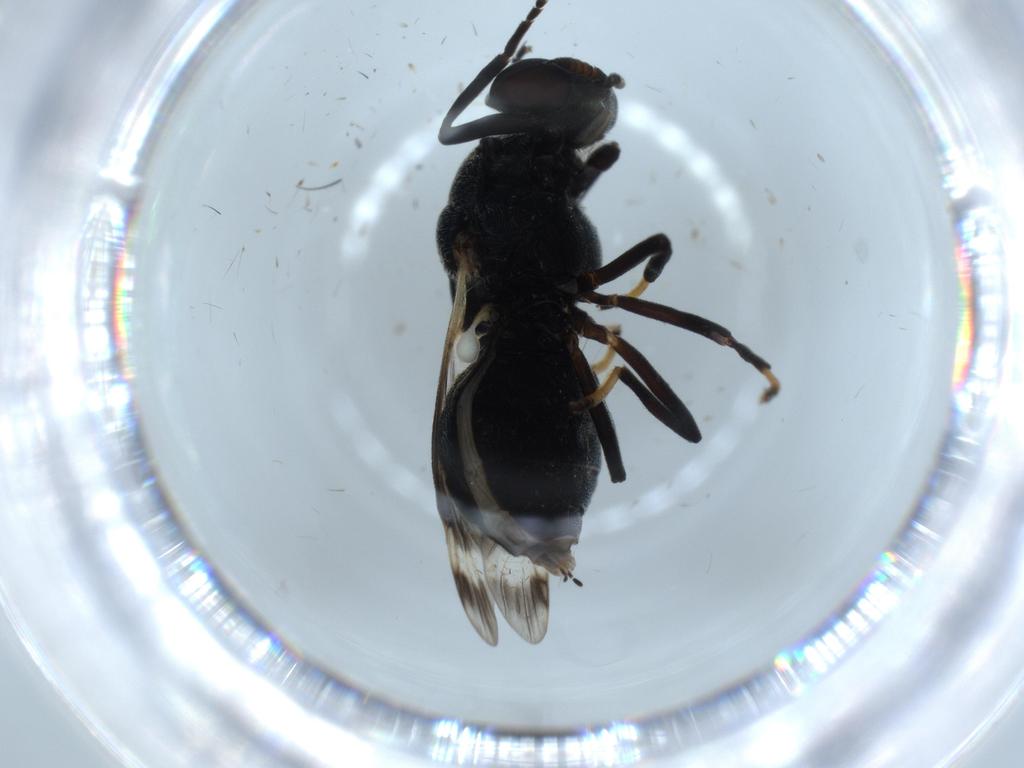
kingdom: Animalia
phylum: Arthropoda
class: Insecta
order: Diptera
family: Stratiomyidae
